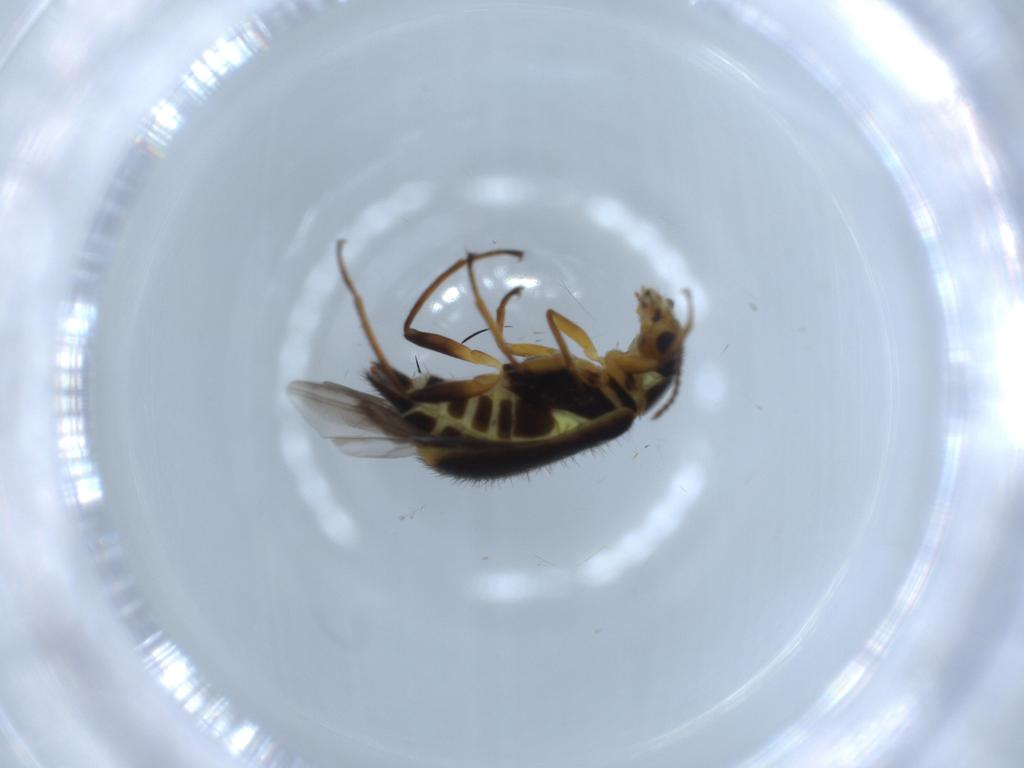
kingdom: Animalia
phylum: Arthropoda
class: Insecta
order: Coleoptera
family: Melyridae
